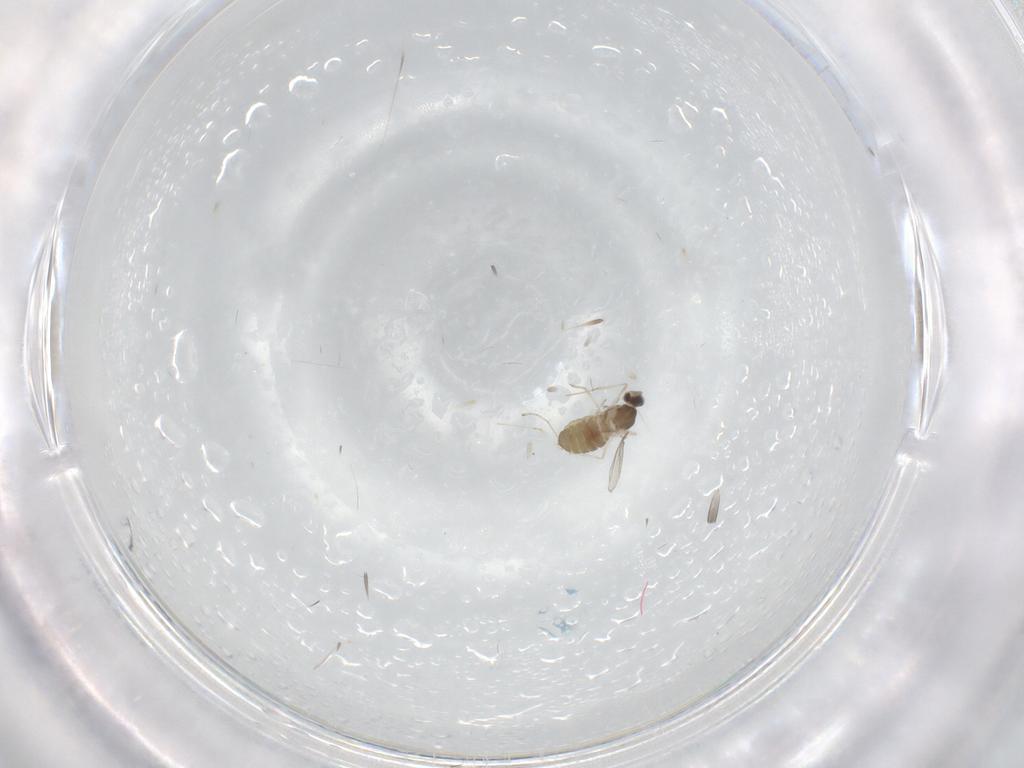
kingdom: Animalia
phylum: Arthropoda
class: Insecta
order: Diptera
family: Cecidomyiidae
